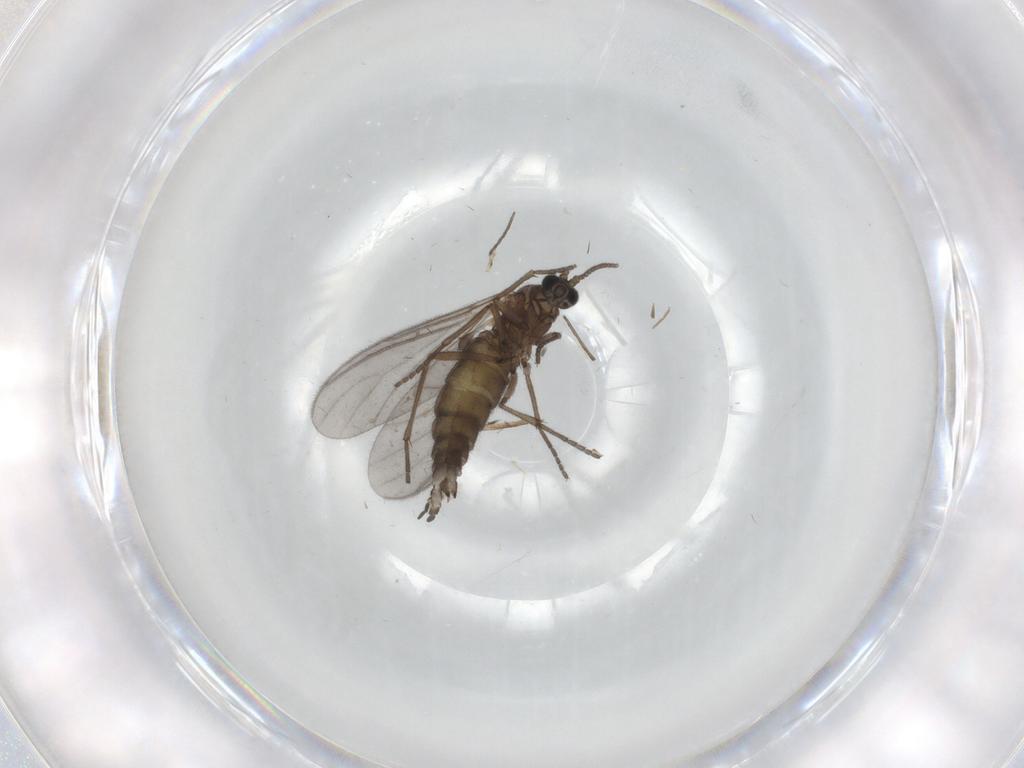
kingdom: Animalia
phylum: Arthropoda
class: Insecta
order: Diptera
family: Sciaridae
